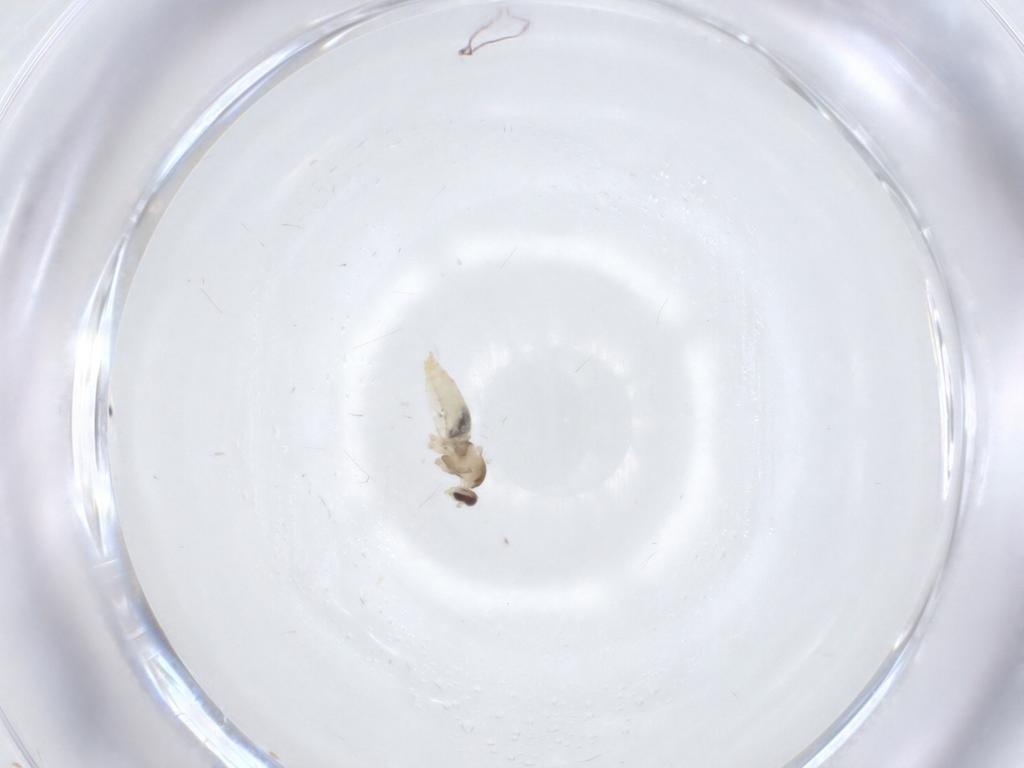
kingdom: Animalia
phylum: Arthropoda
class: Insecta
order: Diptera
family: Cecidomyiidae
